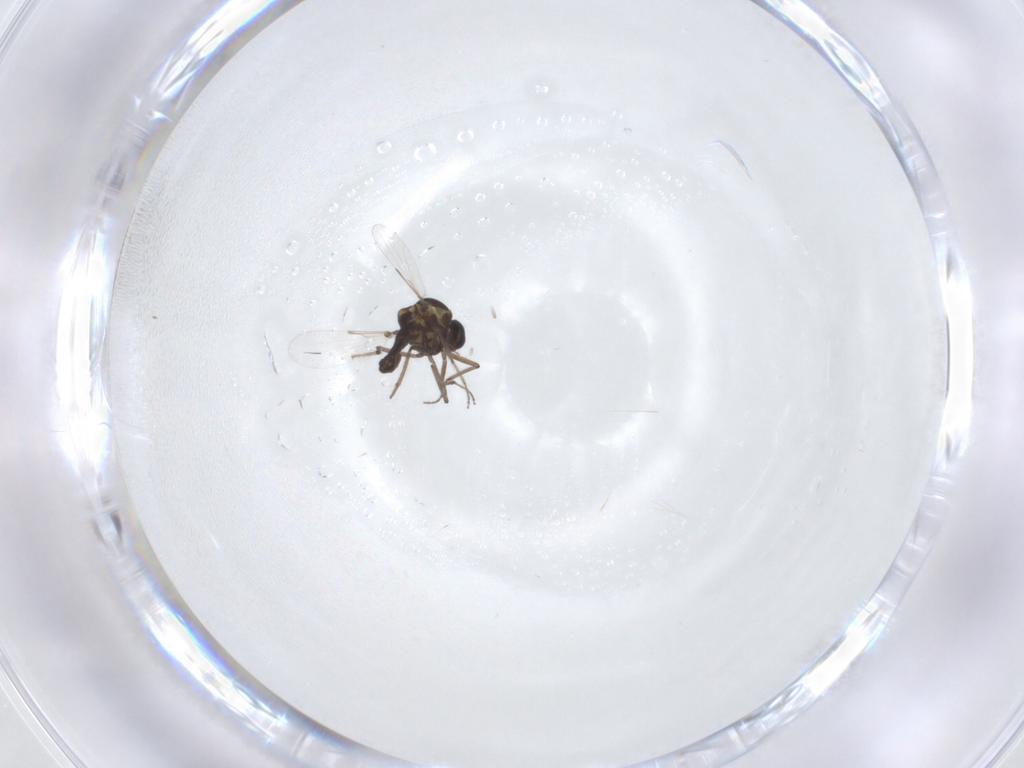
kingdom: Animalia
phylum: Arthropoda
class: Insecta
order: Diptera
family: Ceratopogonidae
